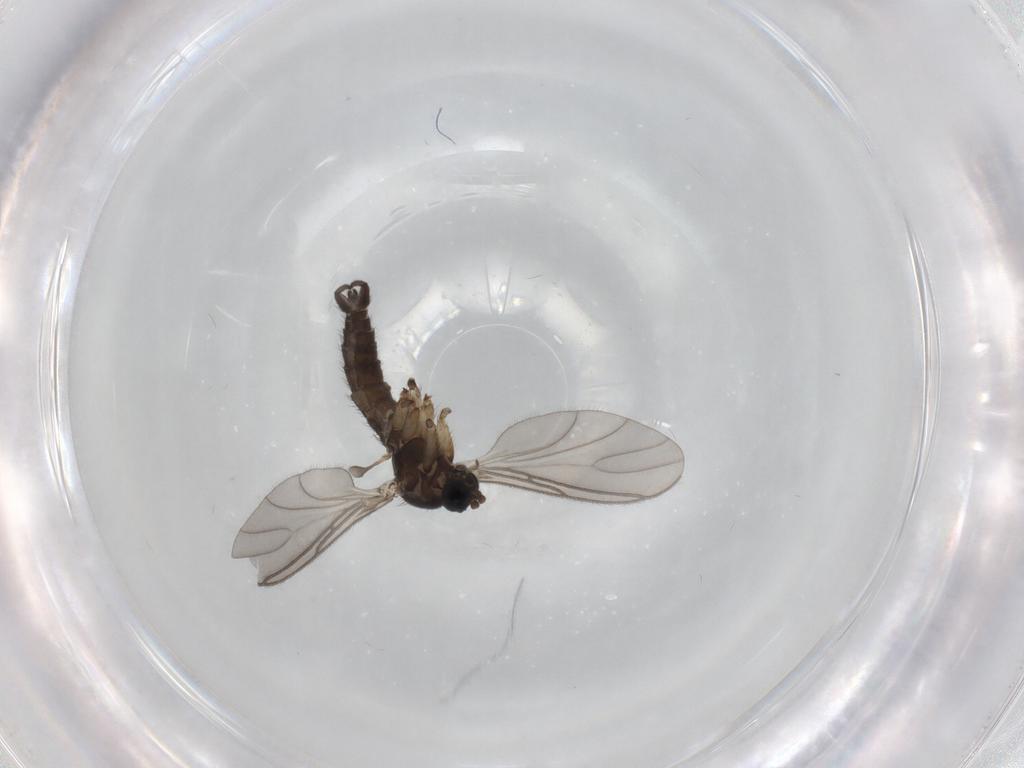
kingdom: Animalia
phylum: Arthropoda
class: Insecta
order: Diptera
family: Sciaridae
